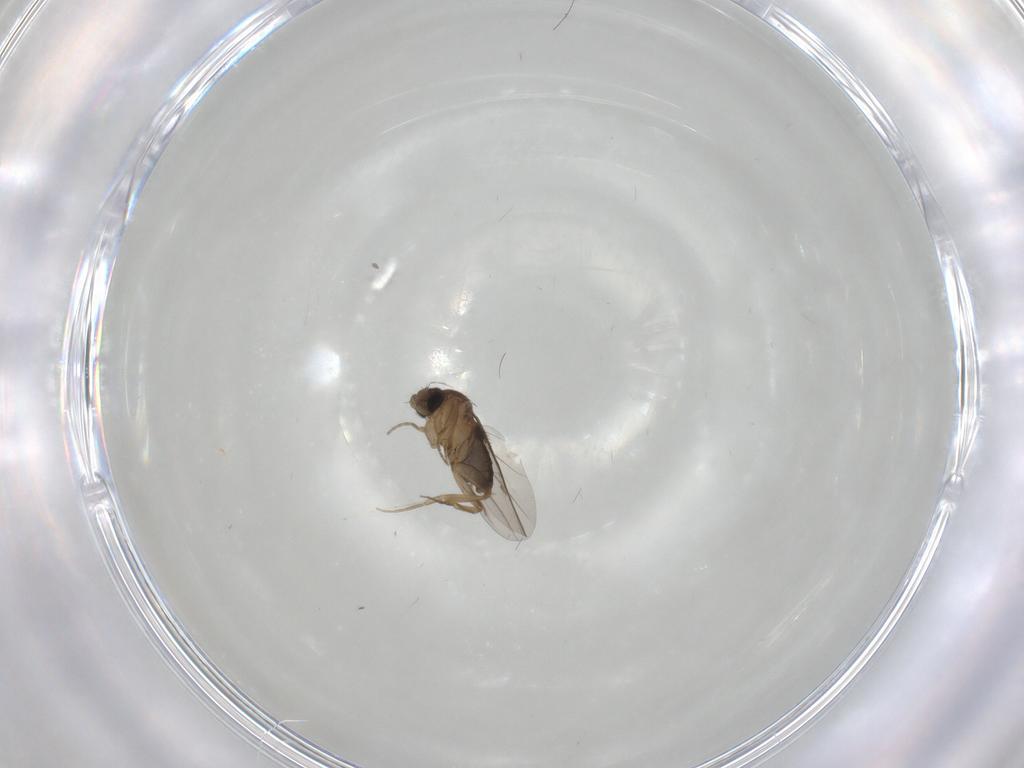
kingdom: Animalia
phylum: Arthropoda
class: Insecta
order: Diptera
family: Phoridae
